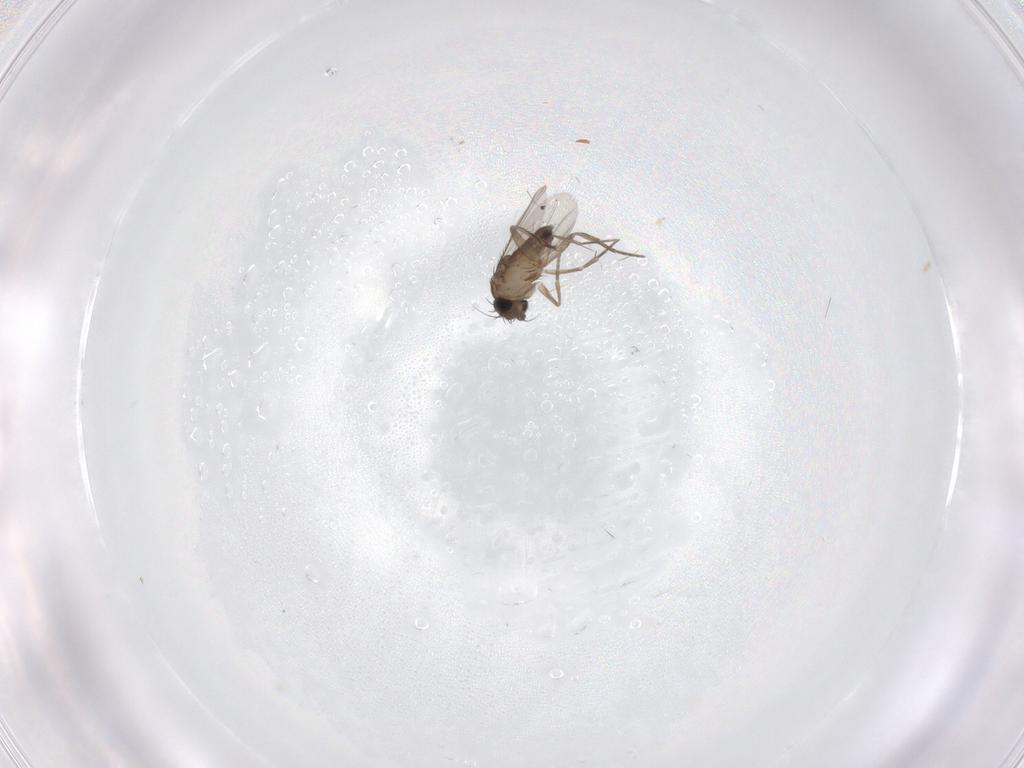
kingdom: Animalia
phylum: Arthropoda
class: Insecta
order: Diptera
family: Phoridae
